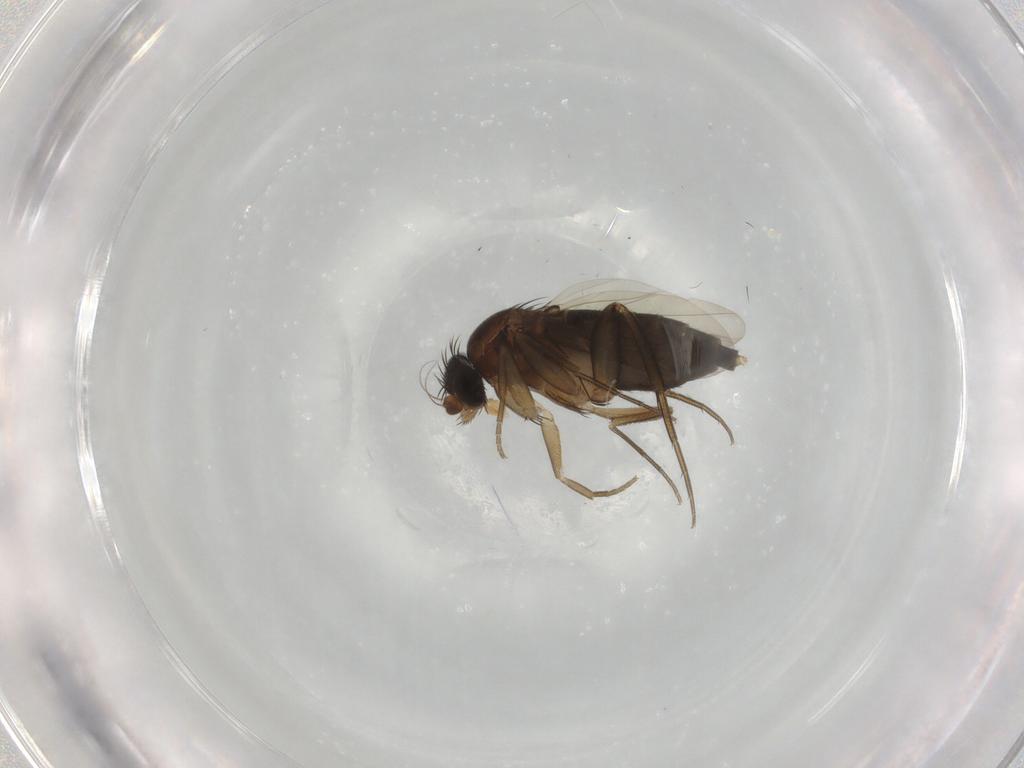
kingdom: Animalia
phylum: Arthropoda
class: Insecta
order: Diptera
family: Phoridae
